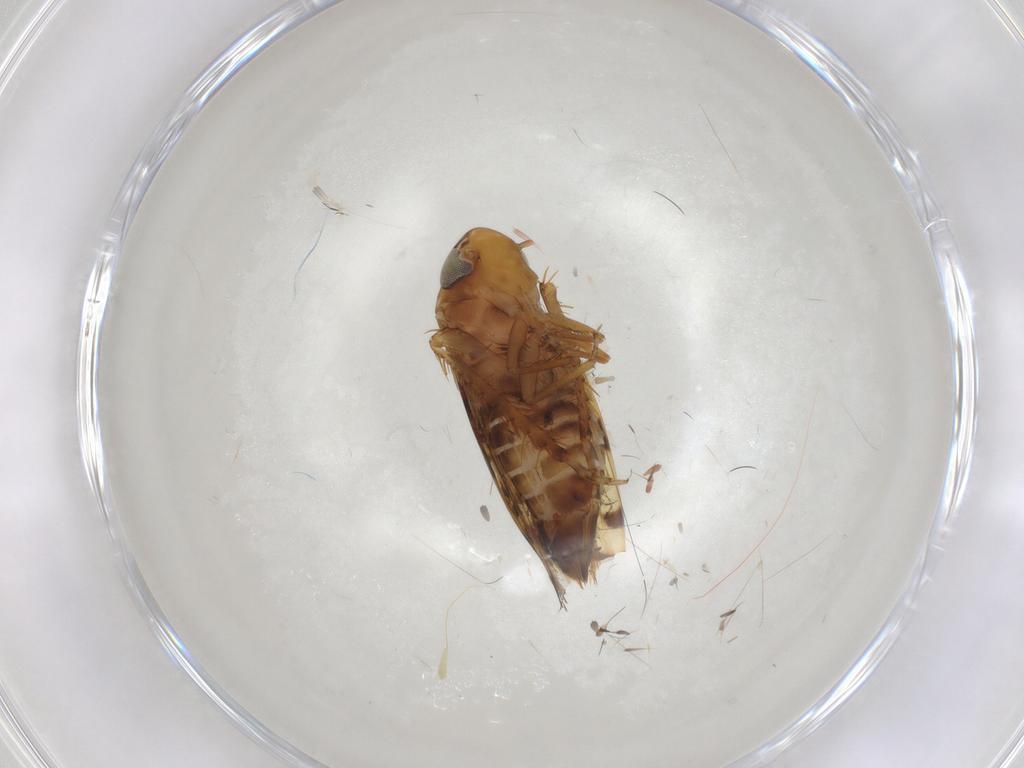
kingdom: Animalia
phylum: Arthropoda
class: Insecta
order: Hemiptera
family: Cicadellidae
